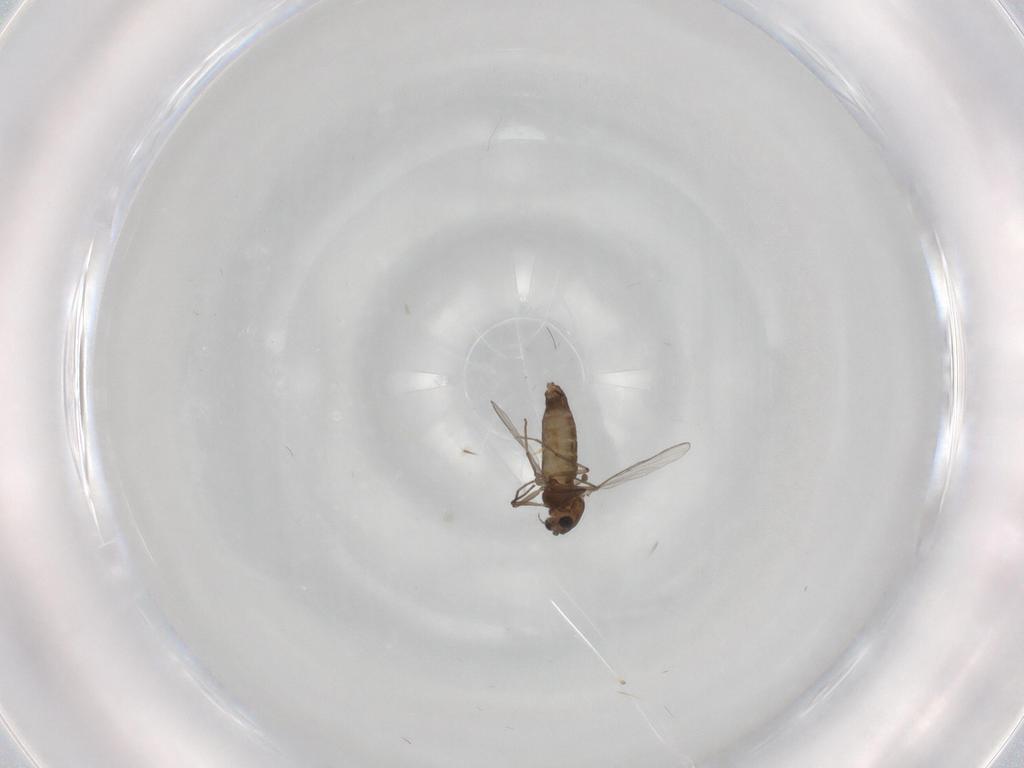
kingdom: Animalia
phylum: Arthropoda
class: Insecta
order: Diptera
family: Chironomidae
